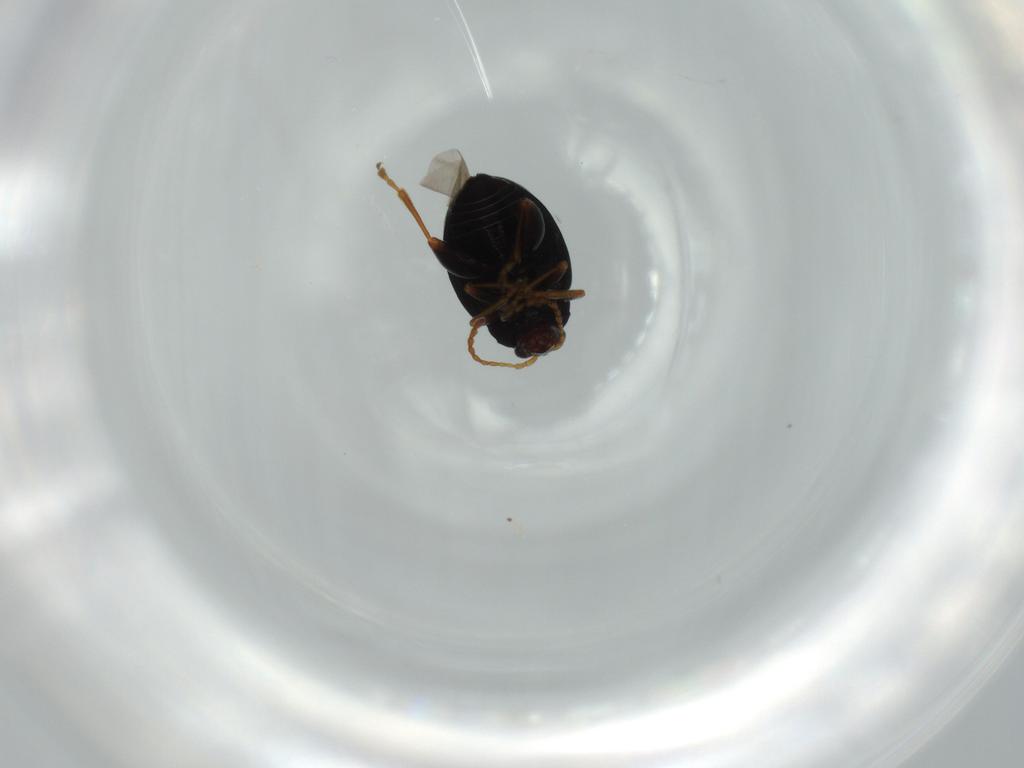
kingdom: Animalia
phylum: Arthropoda
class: Insecta
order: Coleoptera
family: Chrysomelidae
